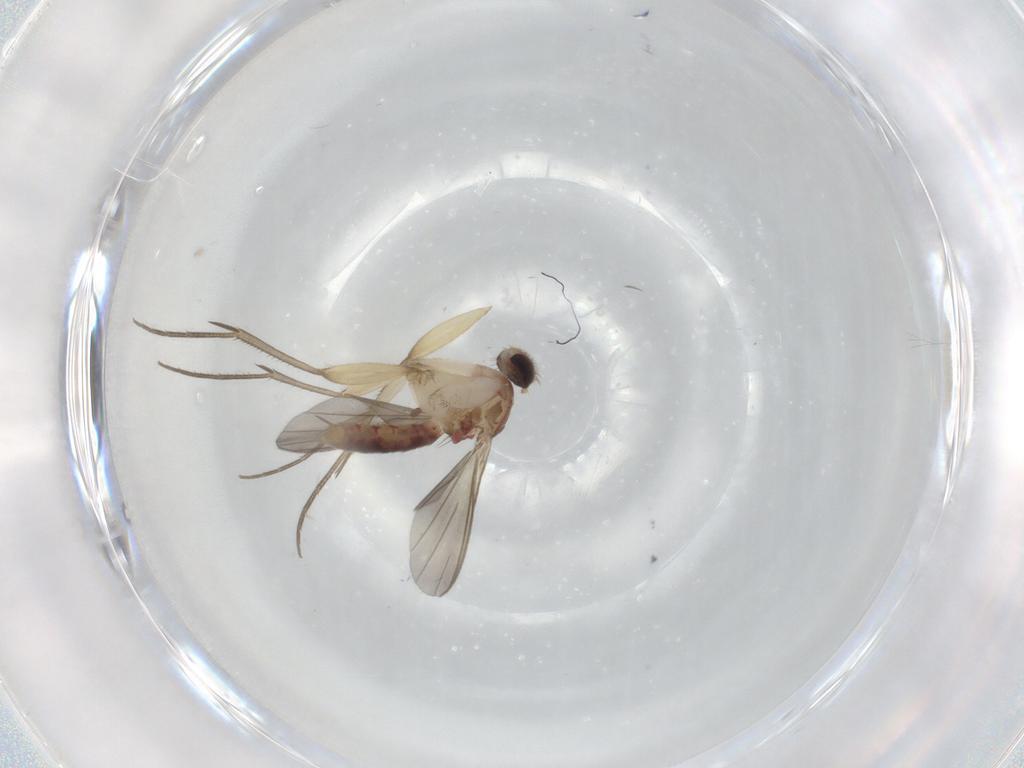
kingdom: Animalia
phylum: Arthropoda
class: Insecta
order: Diptera
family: Mycetophilidae
